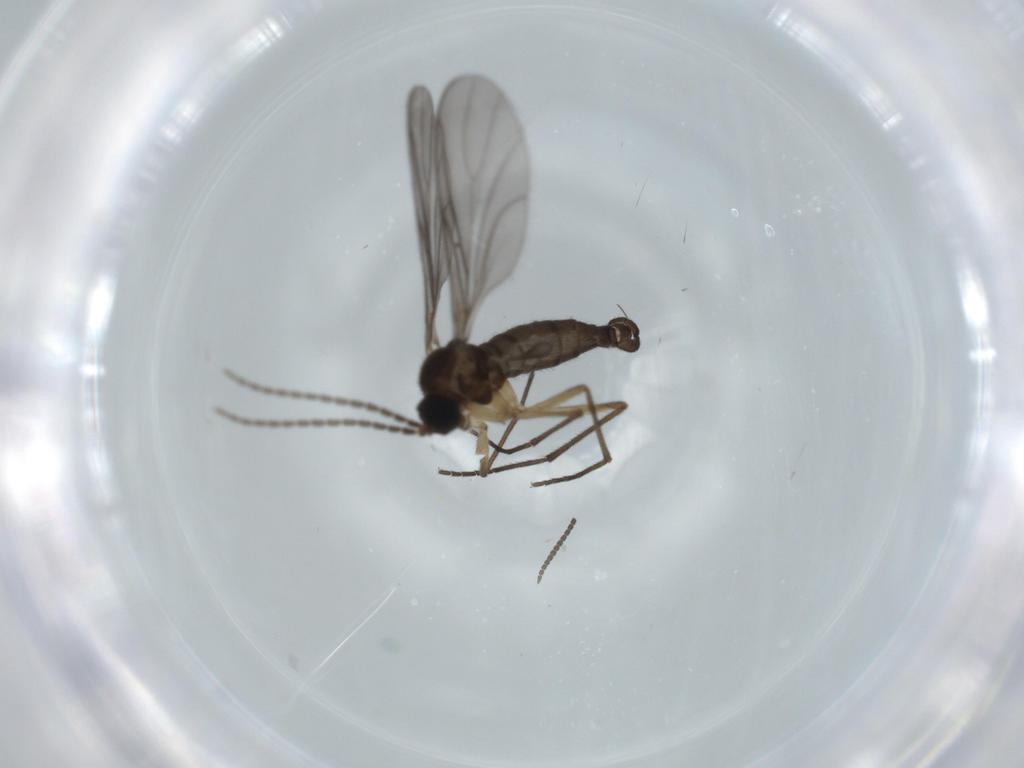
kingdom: Animalia
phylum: Arthropoda
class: Insecta
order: Diptera
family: Sciaridae
